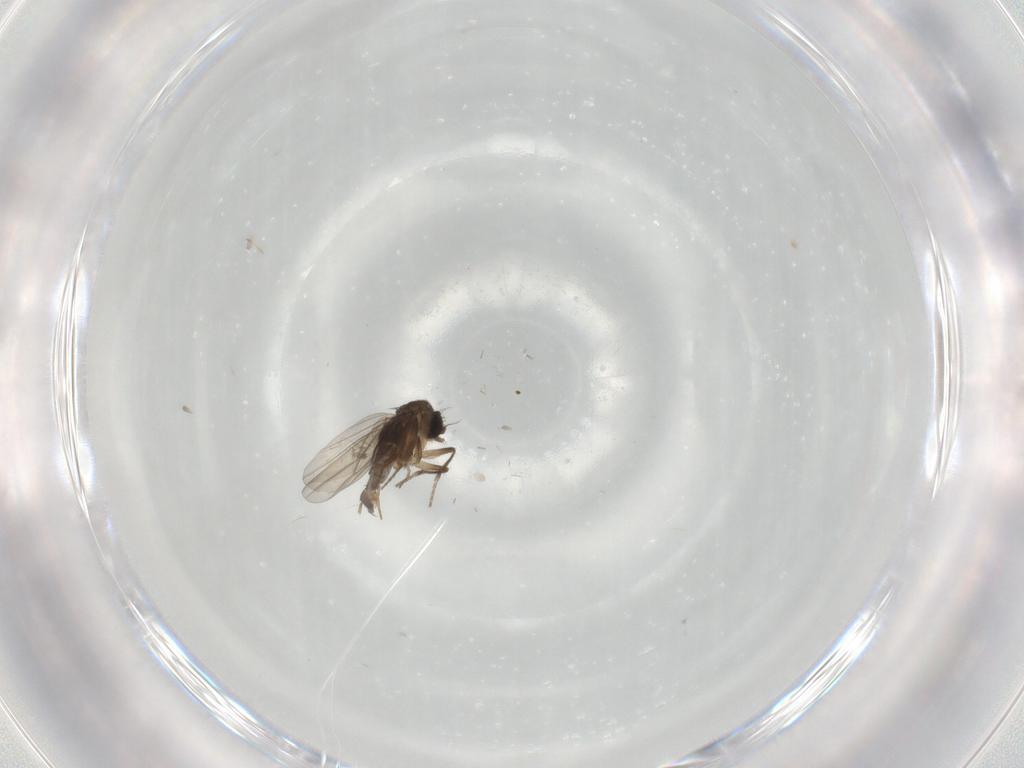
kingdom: Animalia
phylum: Arthropoda
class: Insecta
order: Diptera
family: Phoridae
